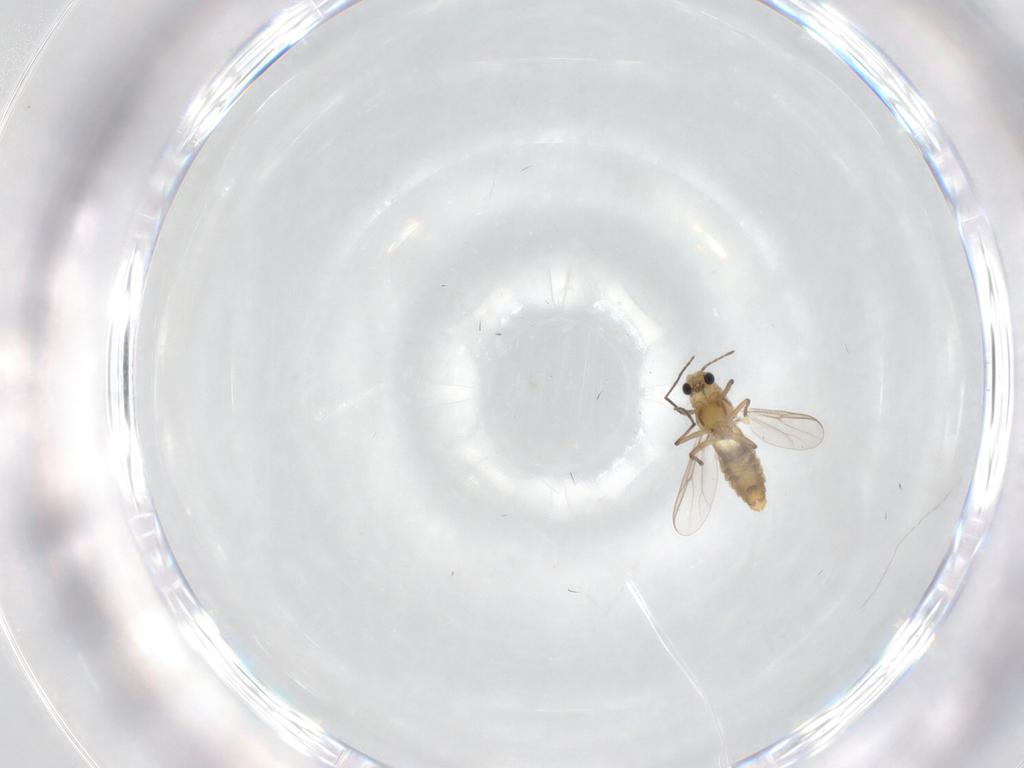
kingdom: Animalia
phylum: Arthropoda
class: Insecta
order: Diptera
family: Chironomidae
